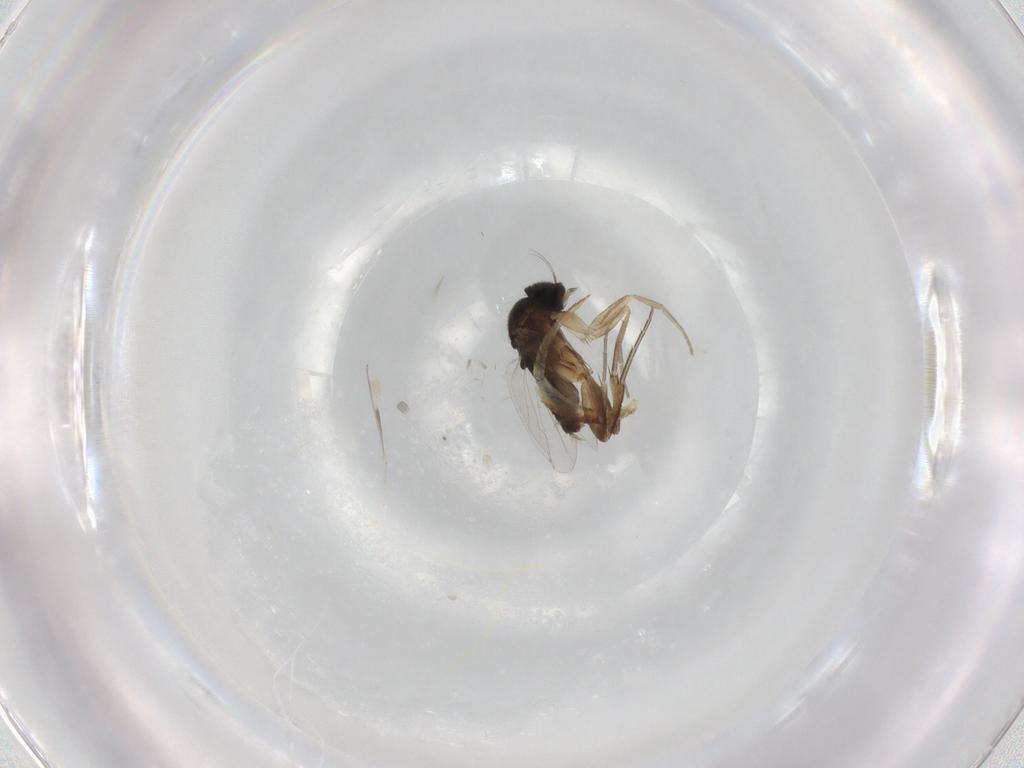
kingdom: Animalia
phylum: Arthropoda
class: Insecta
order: Diptera
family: Phoridae
